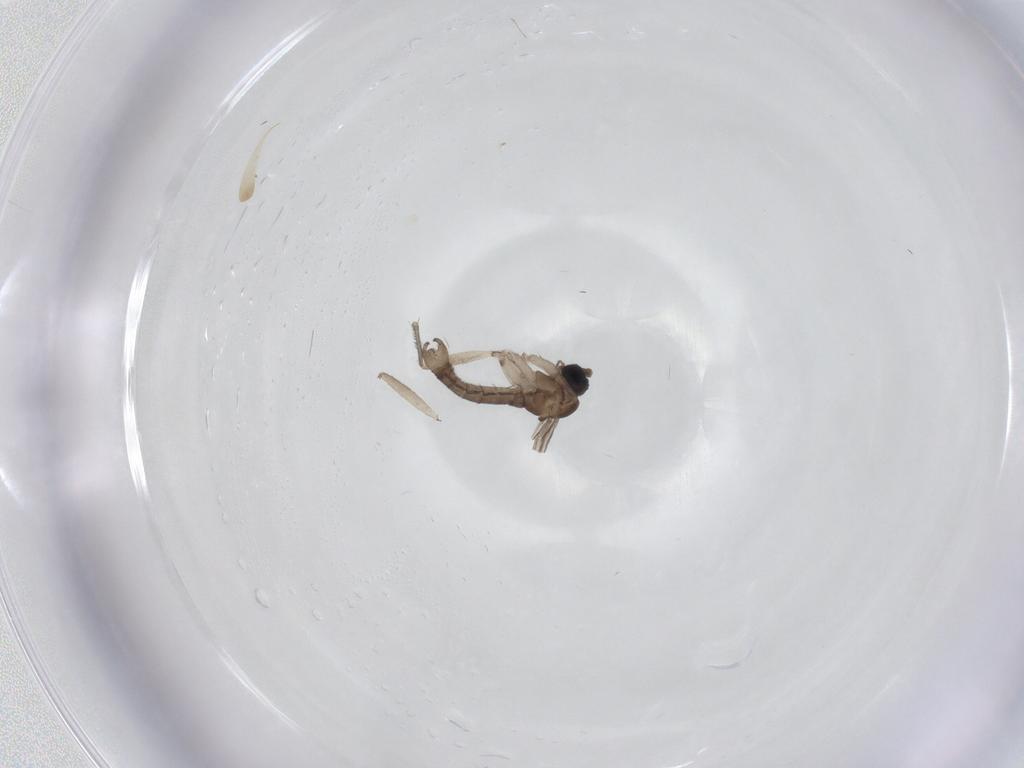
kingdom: Animalia
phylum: Arthropoda
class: Insecta
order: Diptera
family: Sciaridae
